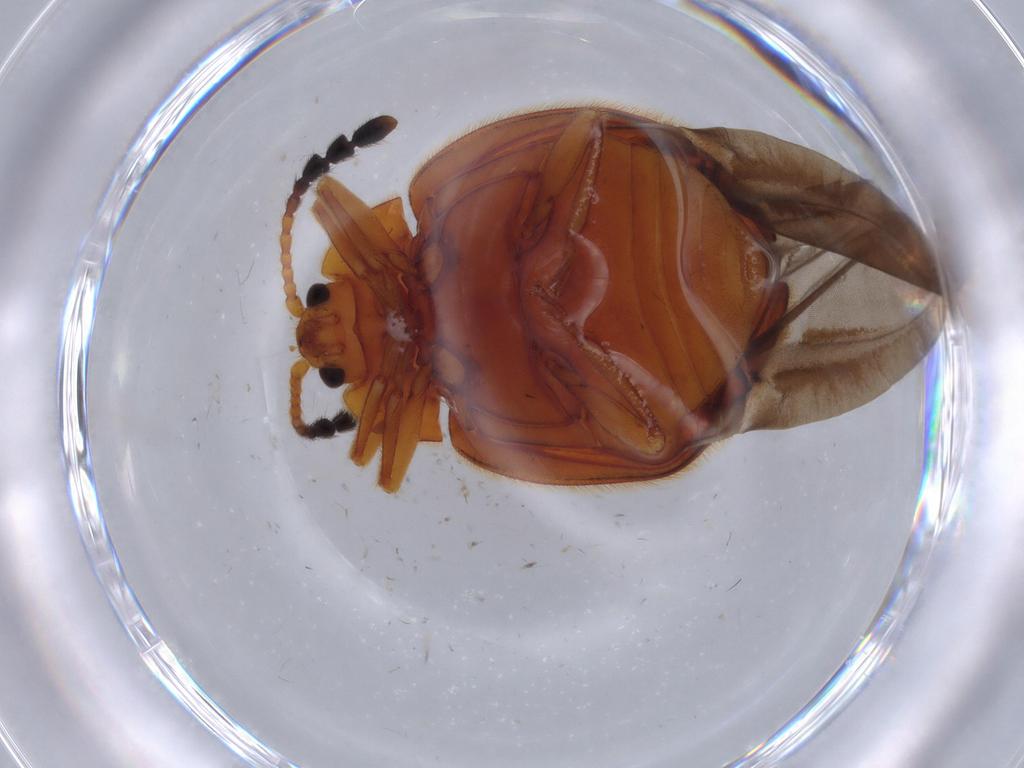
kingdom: Animalia
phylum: Arthropoda
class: Insecta
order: Coleoptera
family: Endomychidae
